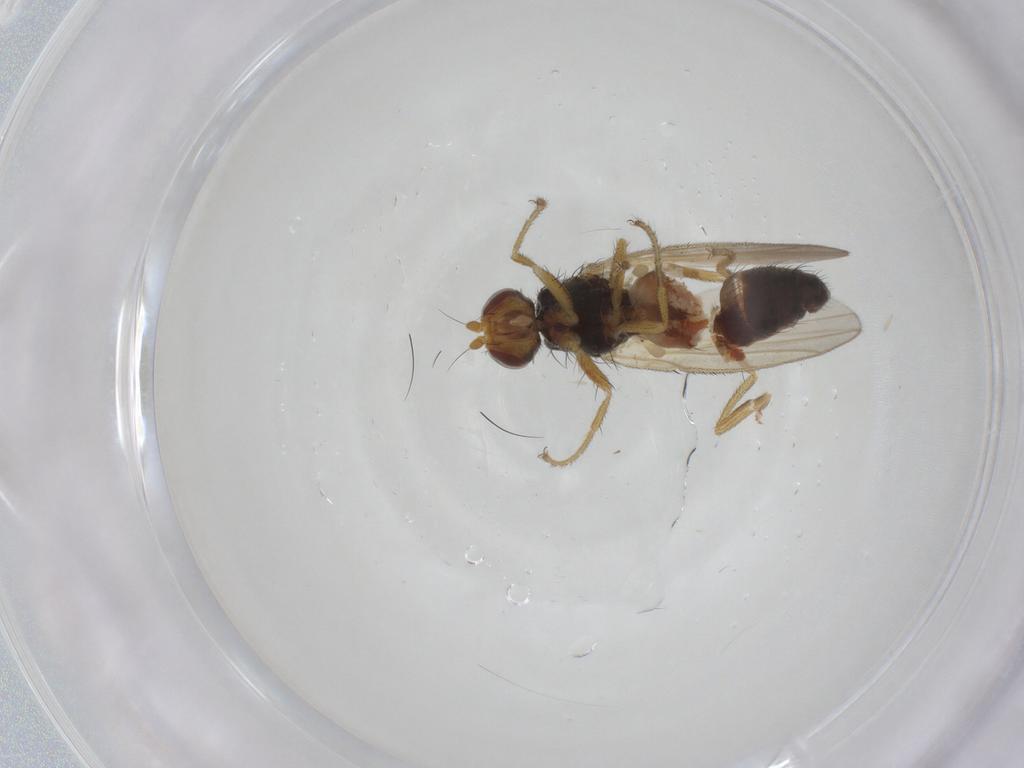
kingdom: Animalia
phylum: Arthropoda
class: Insecta
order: Diptera
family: Heleomyzidae
